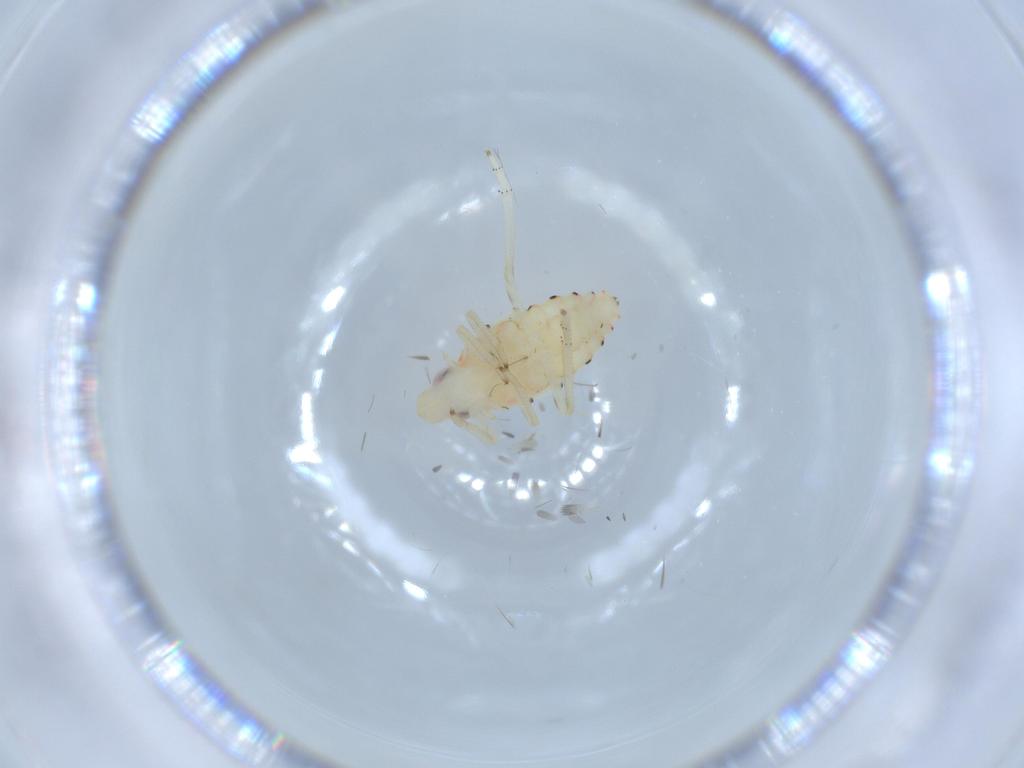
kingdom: Animalia
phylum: Arthropoda
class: Insecta
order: Hemiptera
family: Tropiduchidae
